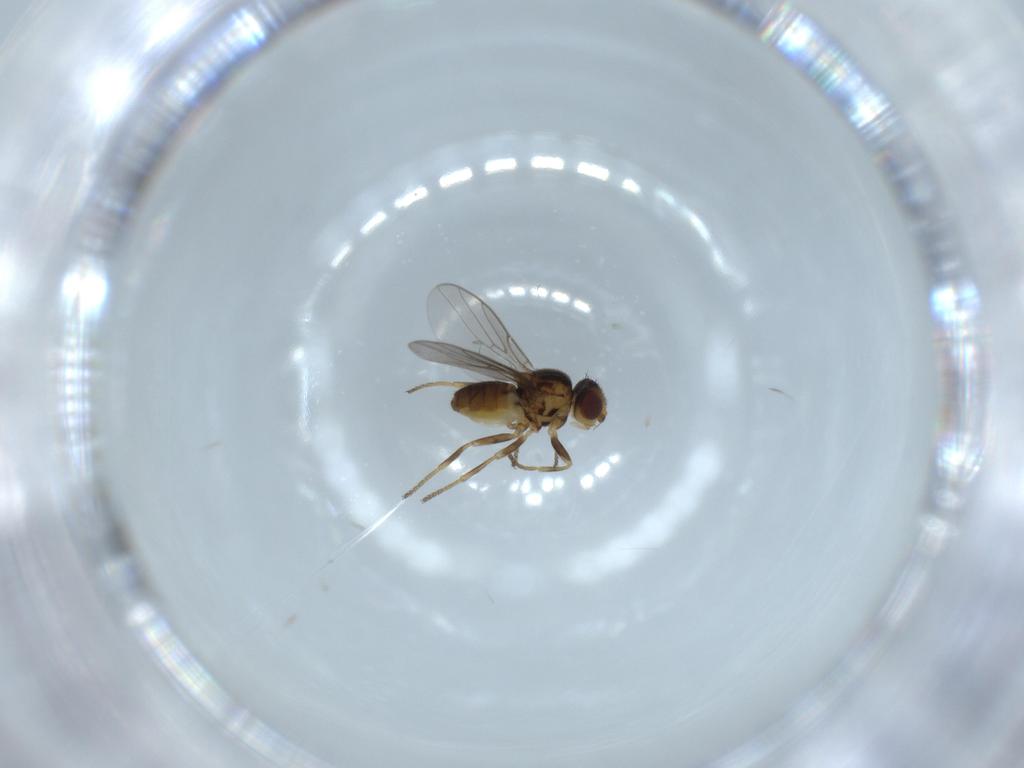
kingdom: Animalia
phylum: Arthropoda
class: Insecta
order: Diptera
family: Chloropidae
